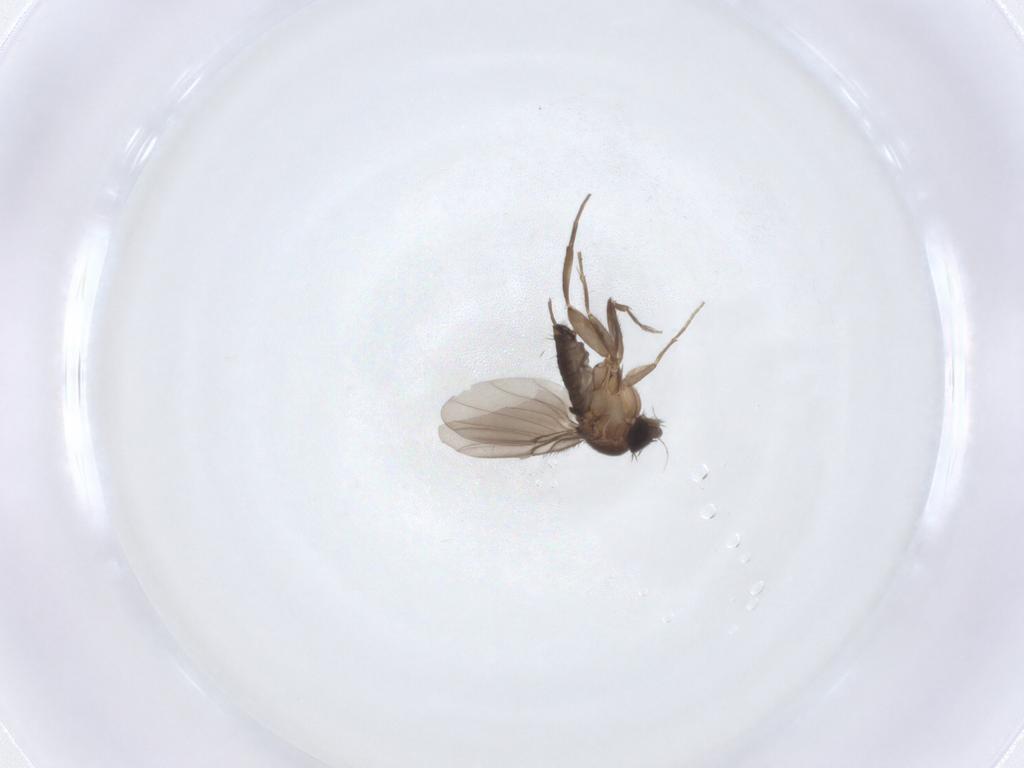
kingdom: Animalia
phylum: Arthropoda
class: Insecta
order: Diptera
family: Phoridae
